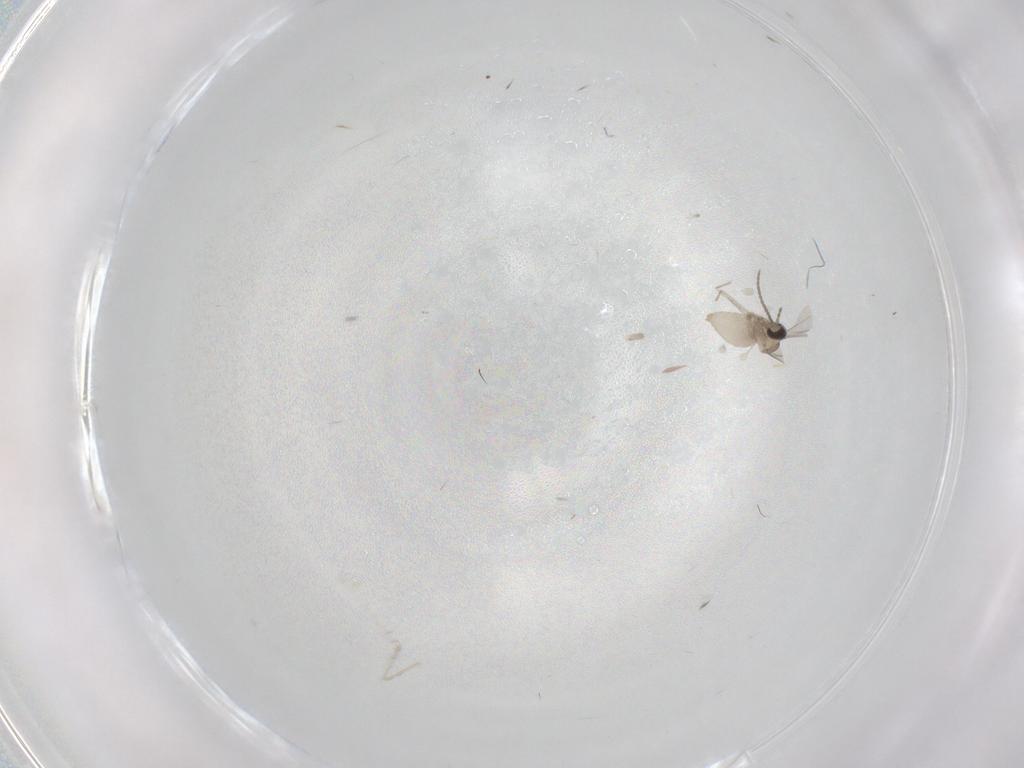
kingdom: Animalia
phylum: Arthropoda
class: Insecta
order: Diptera
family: Cecidomyiidae
